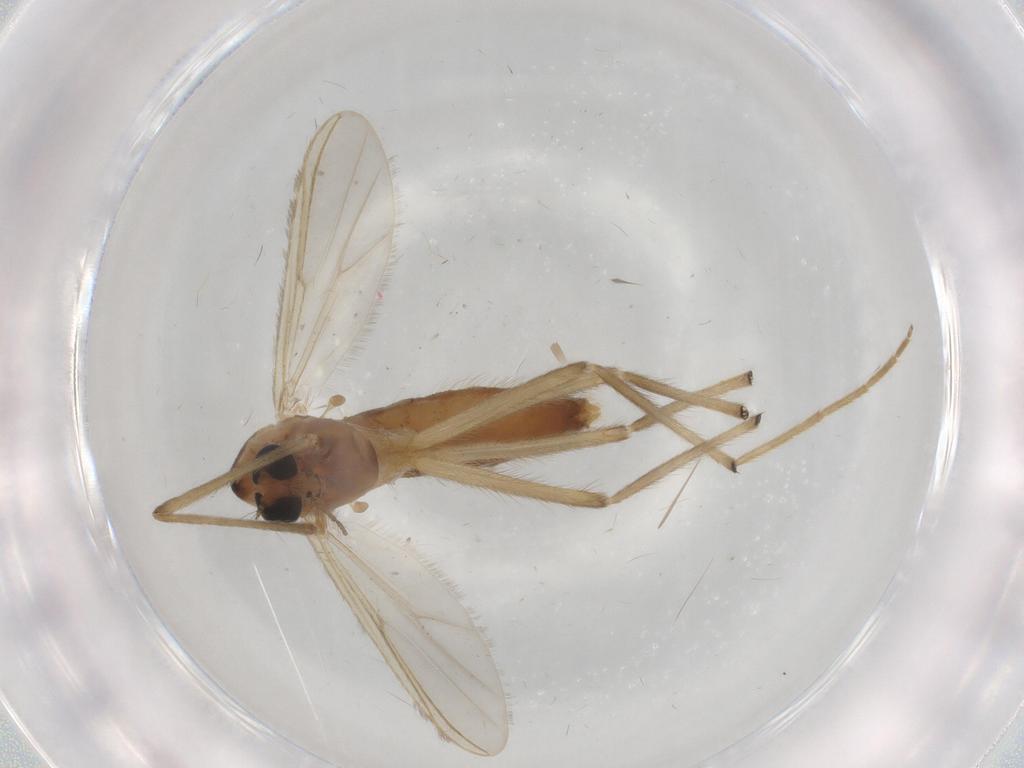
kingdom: Animalia
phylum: Arthropoda
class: Insecta
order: Diptera
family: Chironomidae
